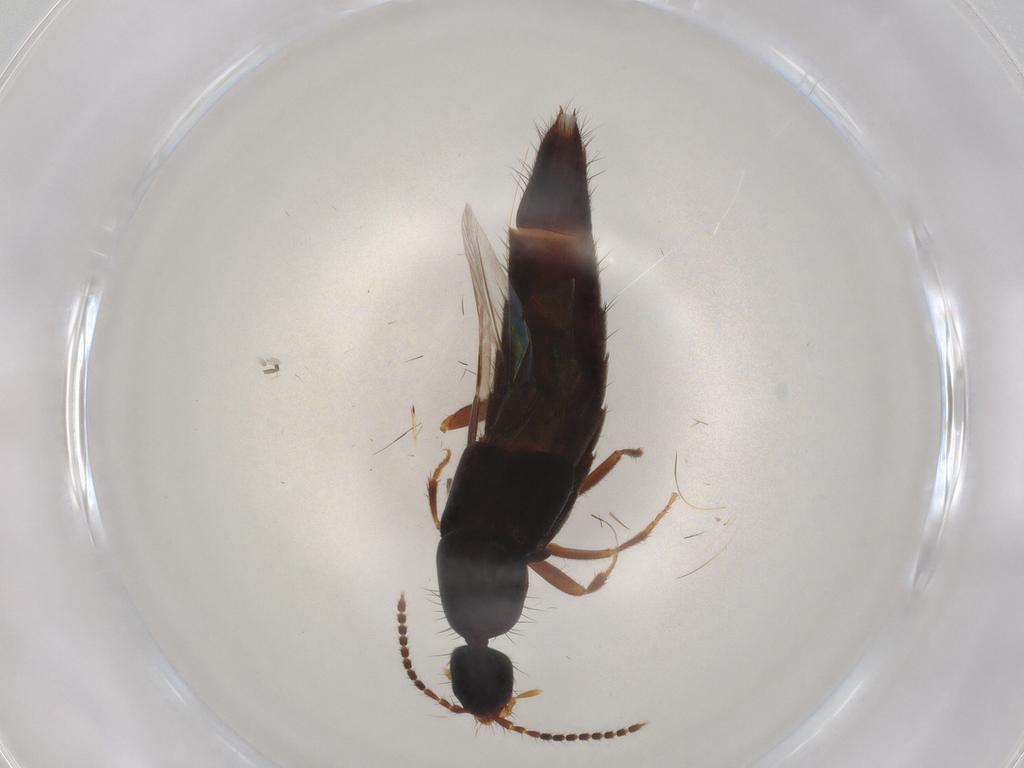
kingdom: Animalia
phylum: Arthropoda
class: Insecta
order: Coleoptera
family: Staphylinidae
